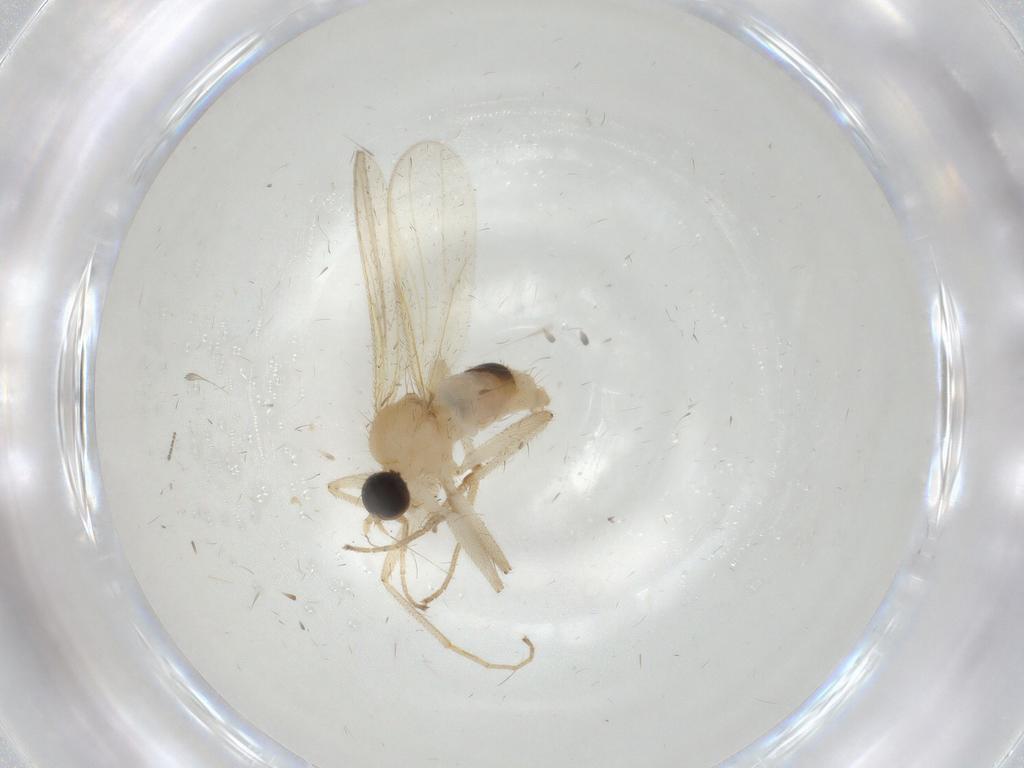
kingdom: Animalia
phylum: Arthropoda
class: Insecta
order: Diptera
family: Hybotidae
